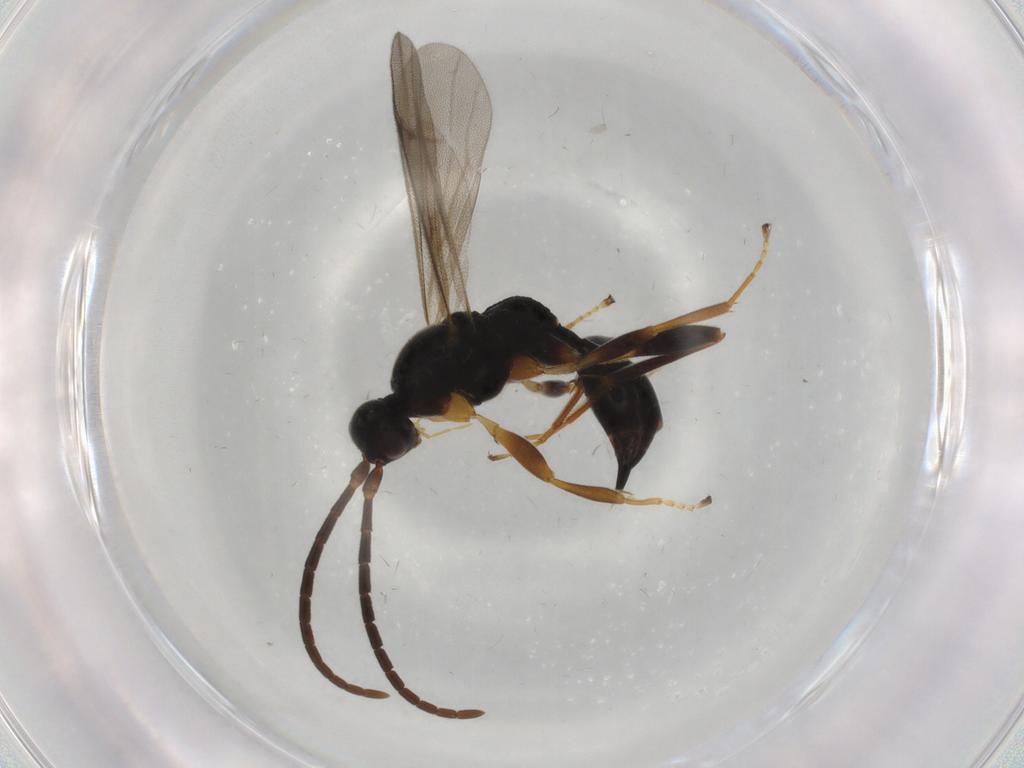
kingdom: Animalia
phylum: Arthropoda
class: Insecta
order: Hymenoptera
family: Proctotrupidae
